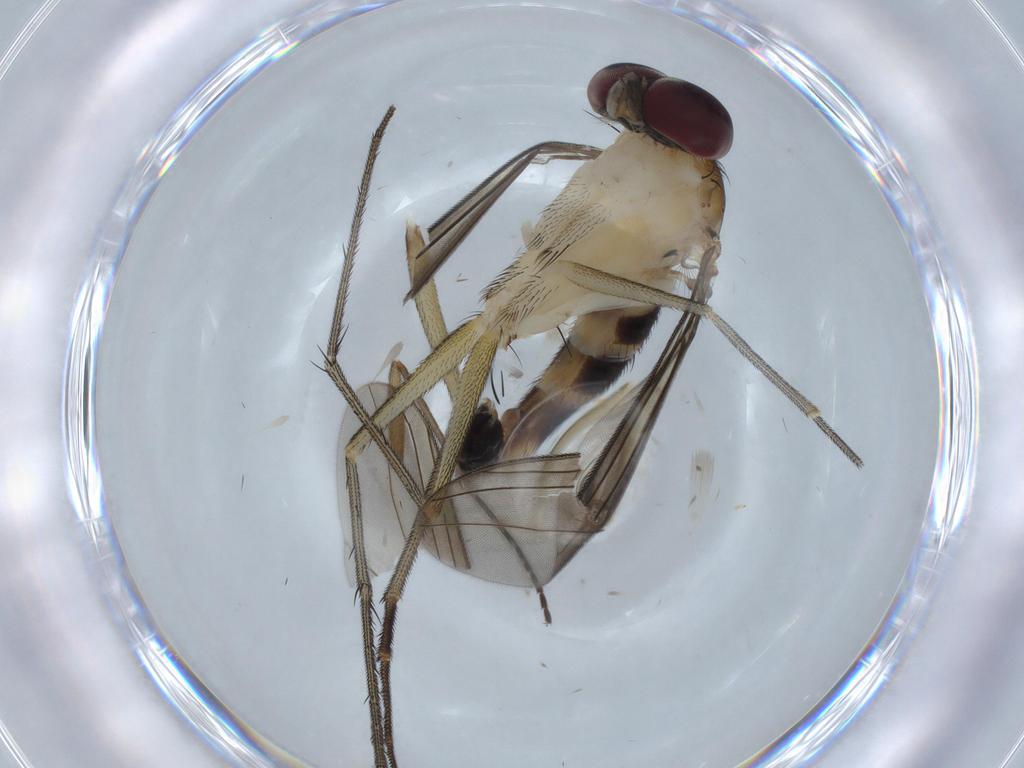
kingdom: Animalia
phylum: Arthropoda
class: Insecta
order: Diptera
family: Dolichopodidae
